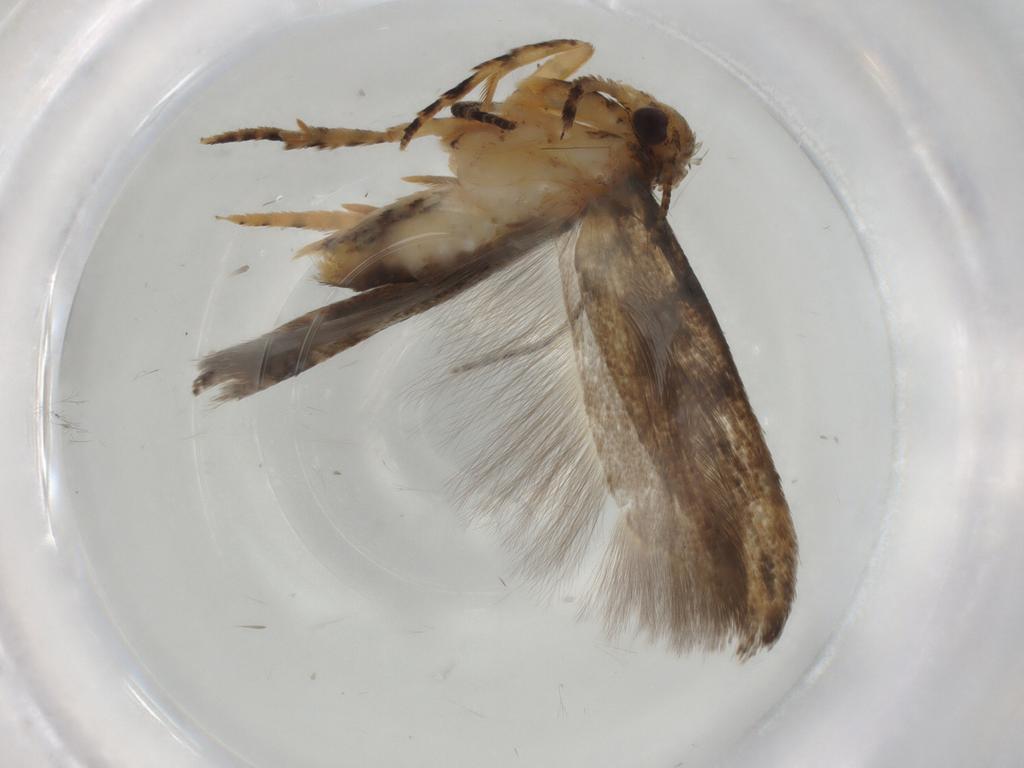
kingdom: Animalia
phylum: Arthropoda
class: Insecta
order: Lepidoptera
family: Gelechiidae
